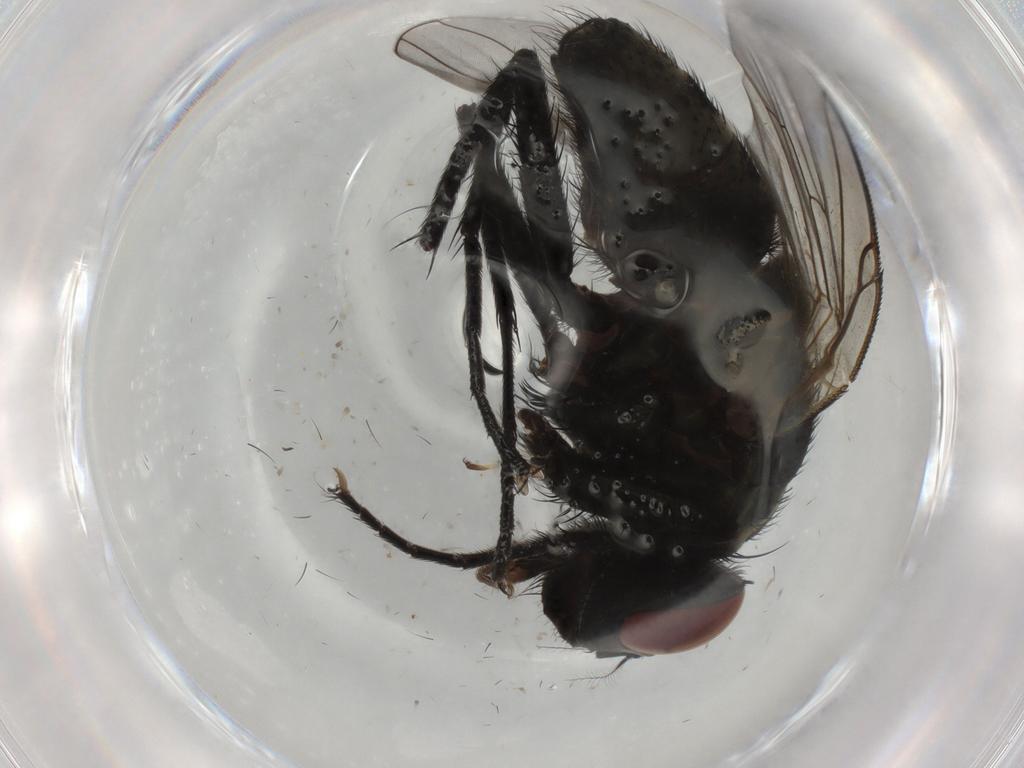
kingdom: Animalia
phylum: Arthropoda
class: Insecta
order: Diptera
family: Muscidae
